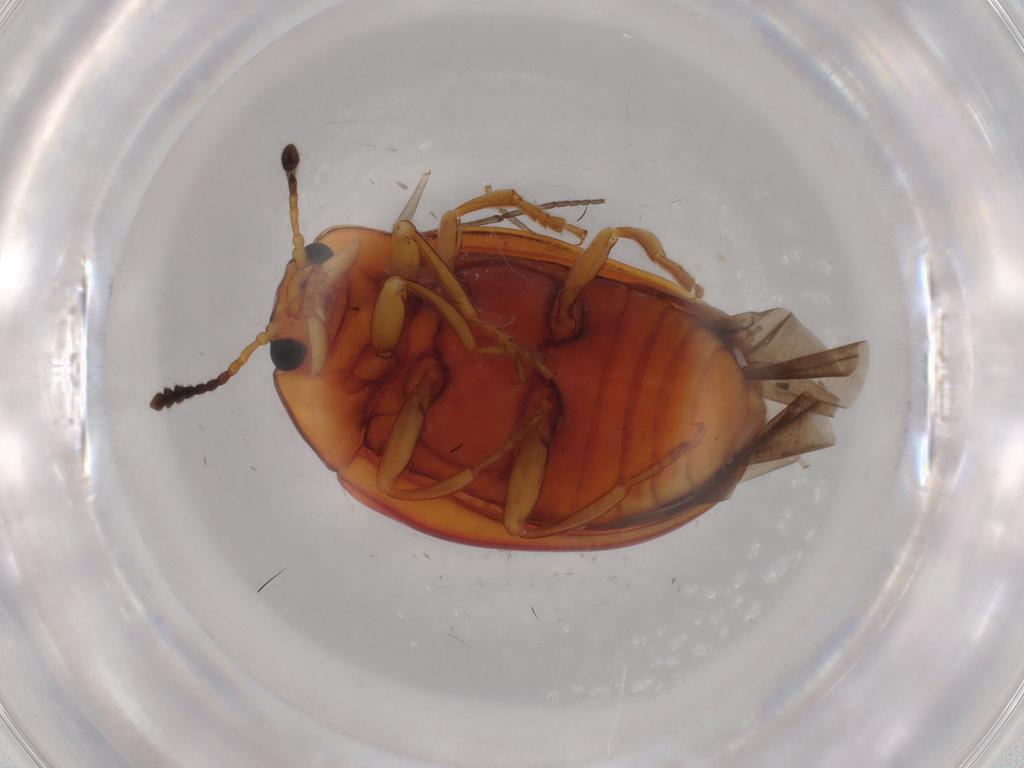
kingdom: Animalia
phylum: Arthropoda
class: Insecta
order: Coleoptera
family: Erotylidae
